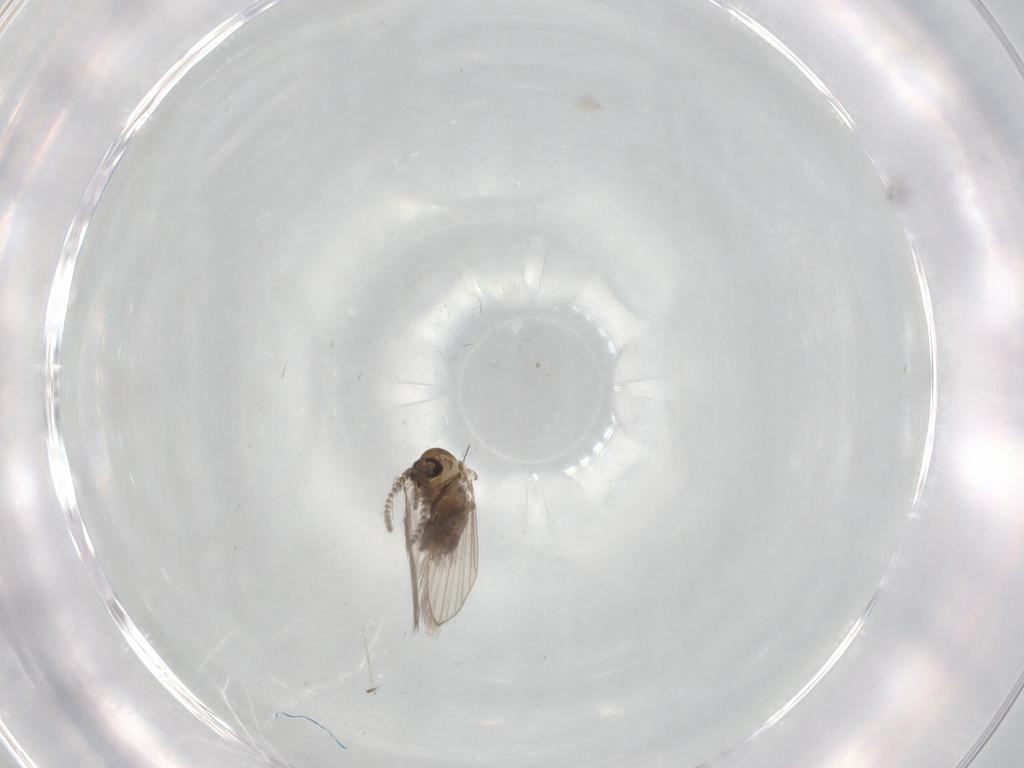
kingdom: Animalia
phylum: Arthropoda
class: Insecta
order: Diptera
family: Psychodidae
